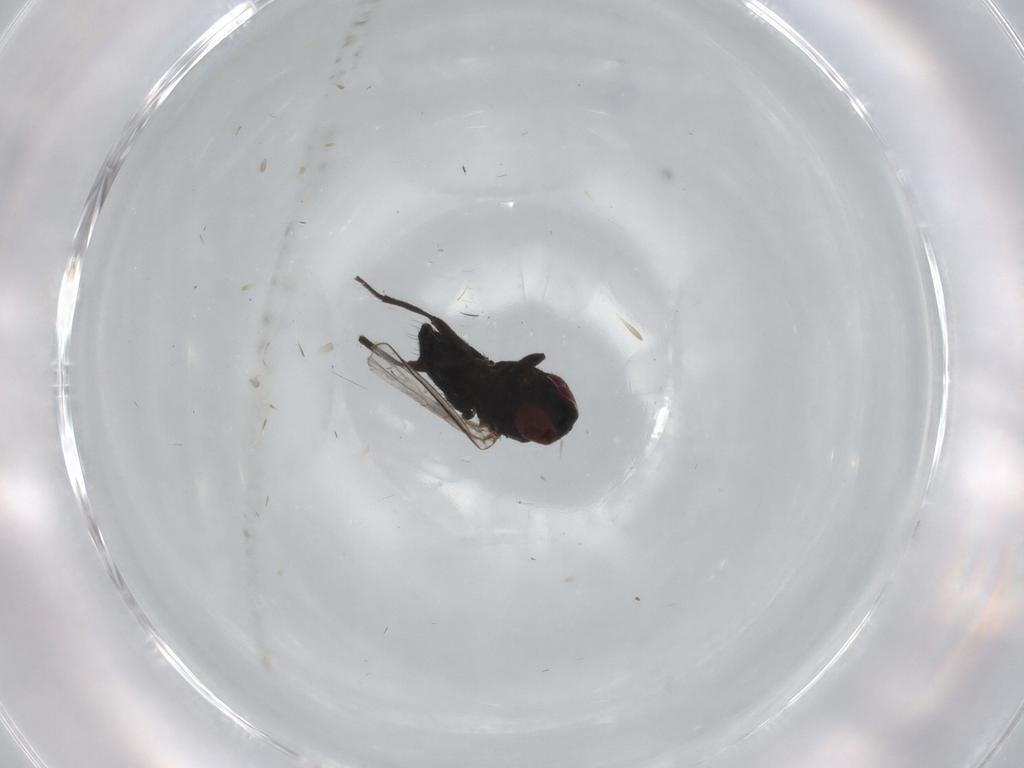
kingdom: Animalia
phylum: Arthropoda
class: Insecta
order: Diptera
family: Agromyzidae
